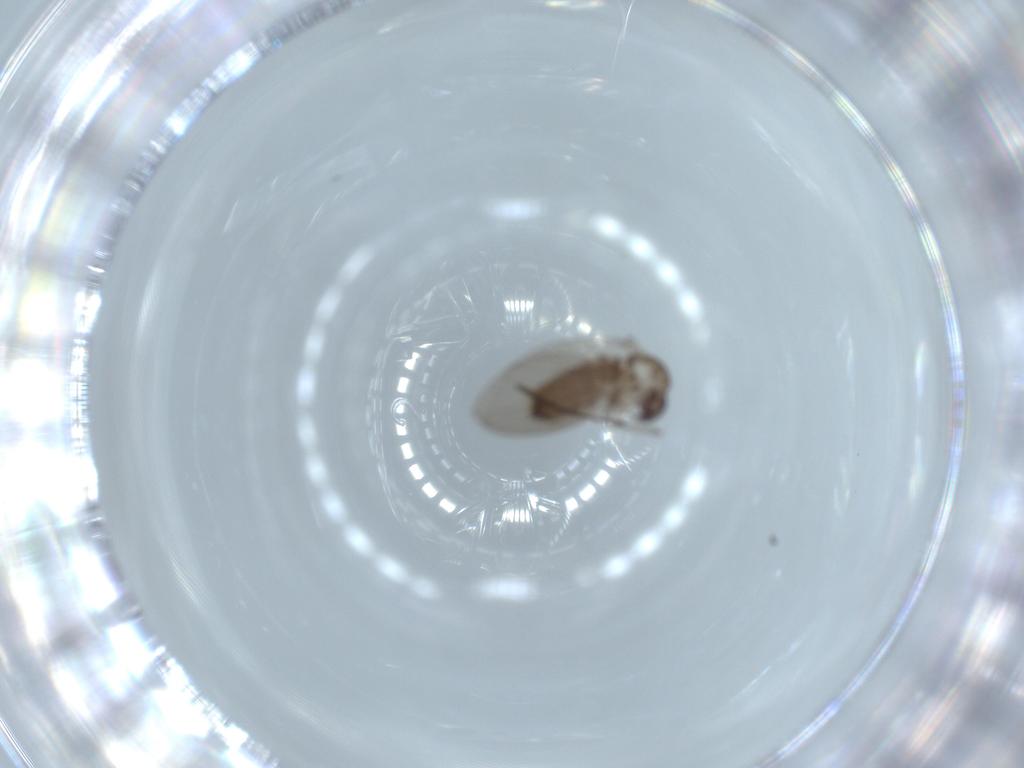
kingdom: Animalia
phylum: Arthropoda
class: Insecta
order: Diptera
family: Psychodidae
